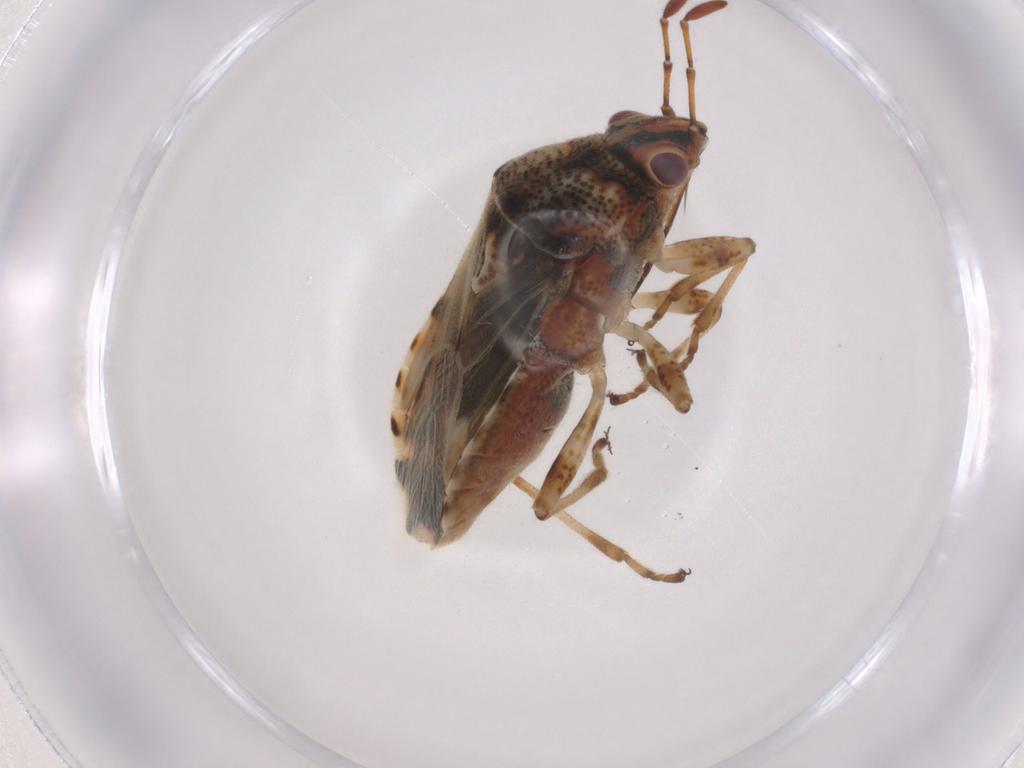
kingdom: Animalia
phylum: Arthropoda
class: Insecta
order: Hemiptera
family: Lygaeidae
